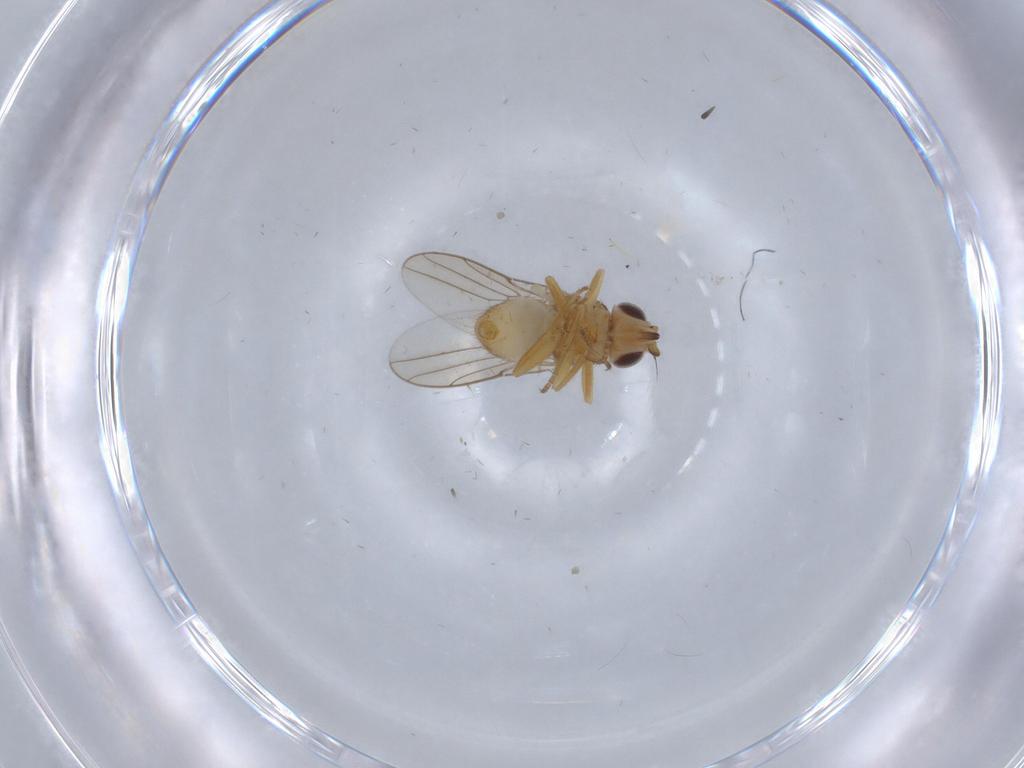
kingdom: Animalia
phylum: Arthropoda
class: Insecta
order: Diptera
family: Chloropidae
